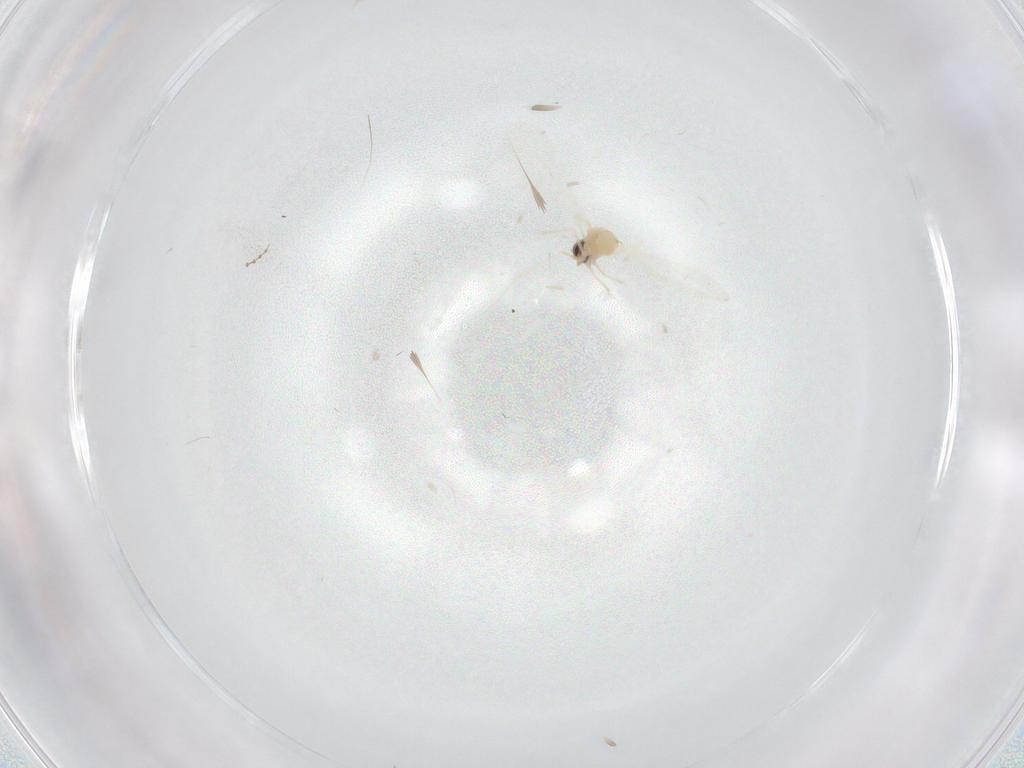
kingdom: Animalia
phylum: Arthropoda
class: Insecta
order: Diptera
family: Cecidomyiidae
